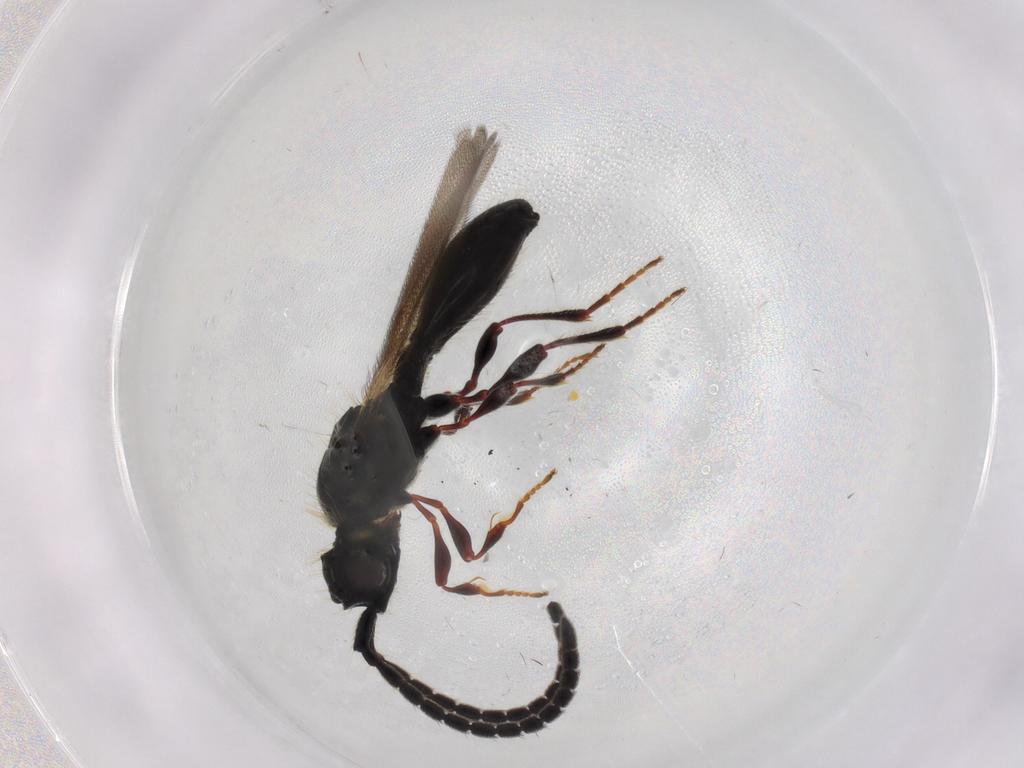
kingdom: Animalia
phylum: Arthropoda
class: Insecta
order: Hymenoptera
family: Diapriidae
